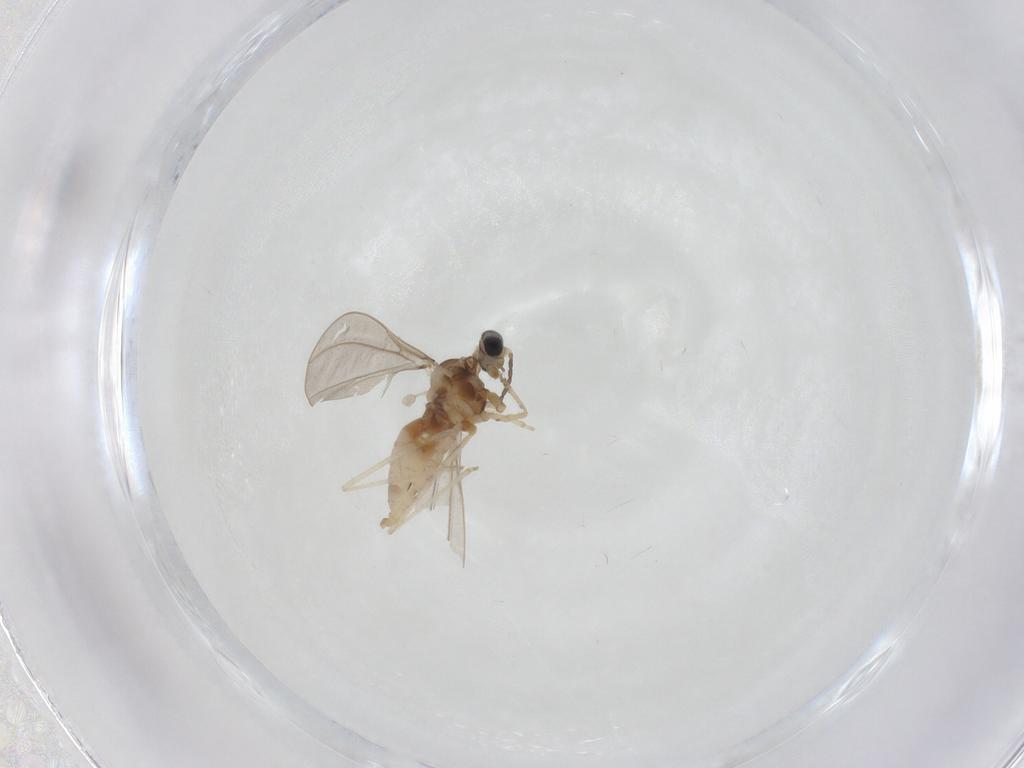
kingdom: Animalia
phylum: Arthropoda
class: Insecta
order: Diptera
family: Cecidomyiidae
